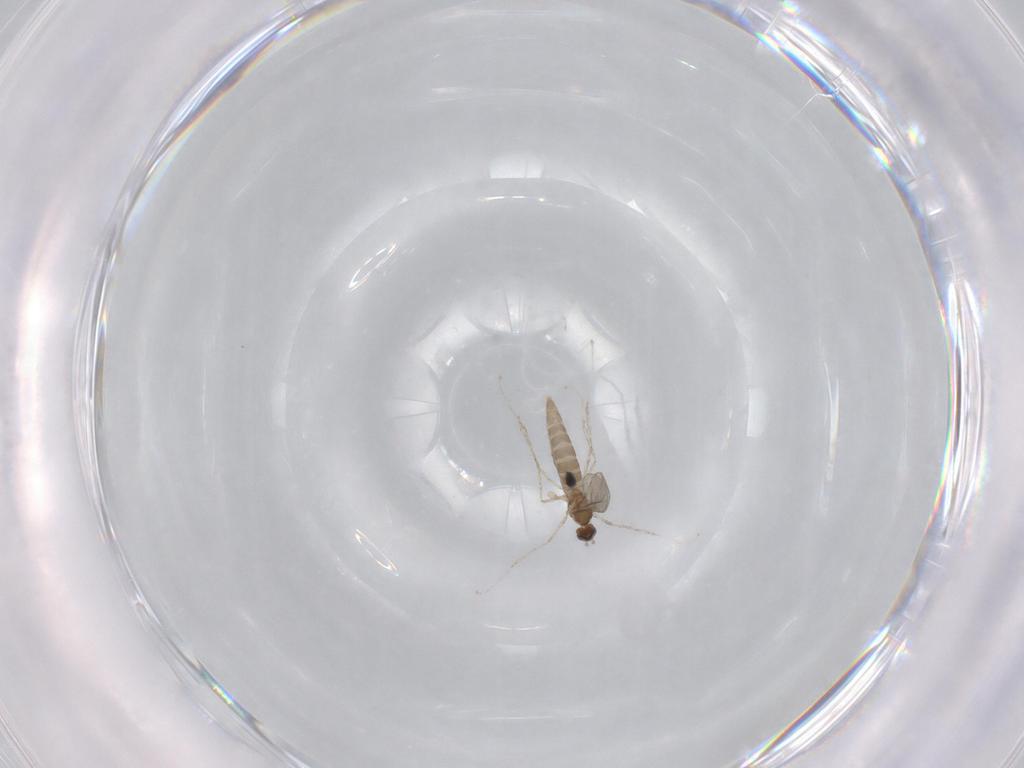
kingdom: Animalia
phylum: Arthropoda
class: Insecta
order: Diptera
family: Chironomidae
